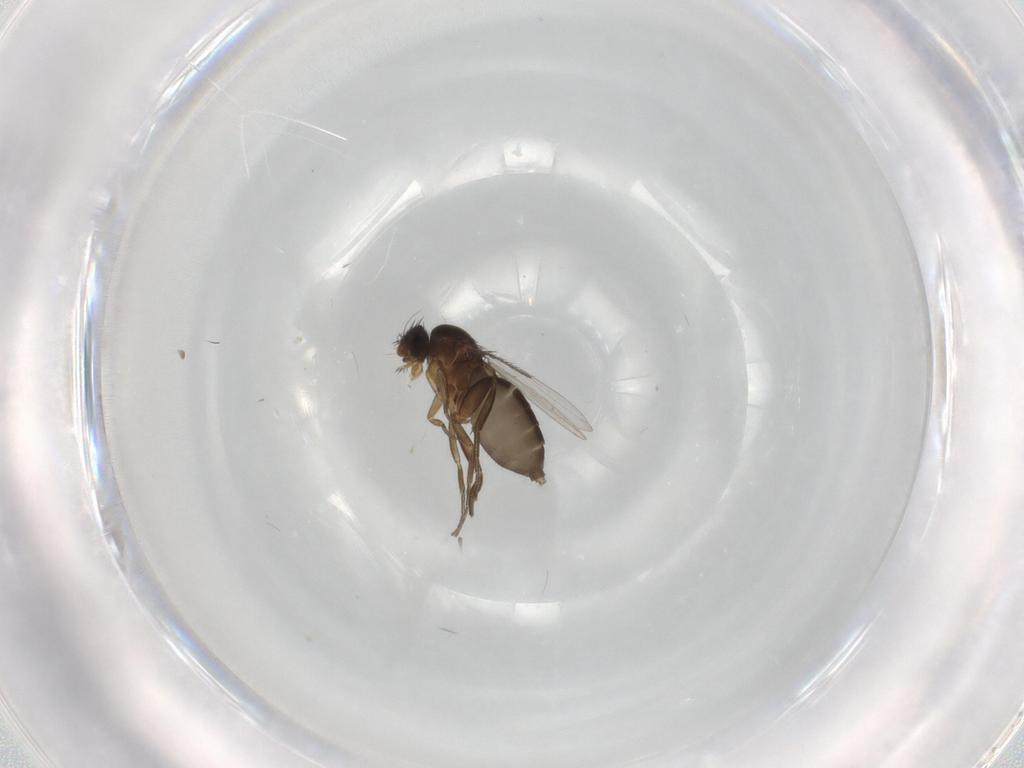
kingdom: Animalia
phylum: Arthropoda
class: Insecta
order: Diptera
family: Phoridae
